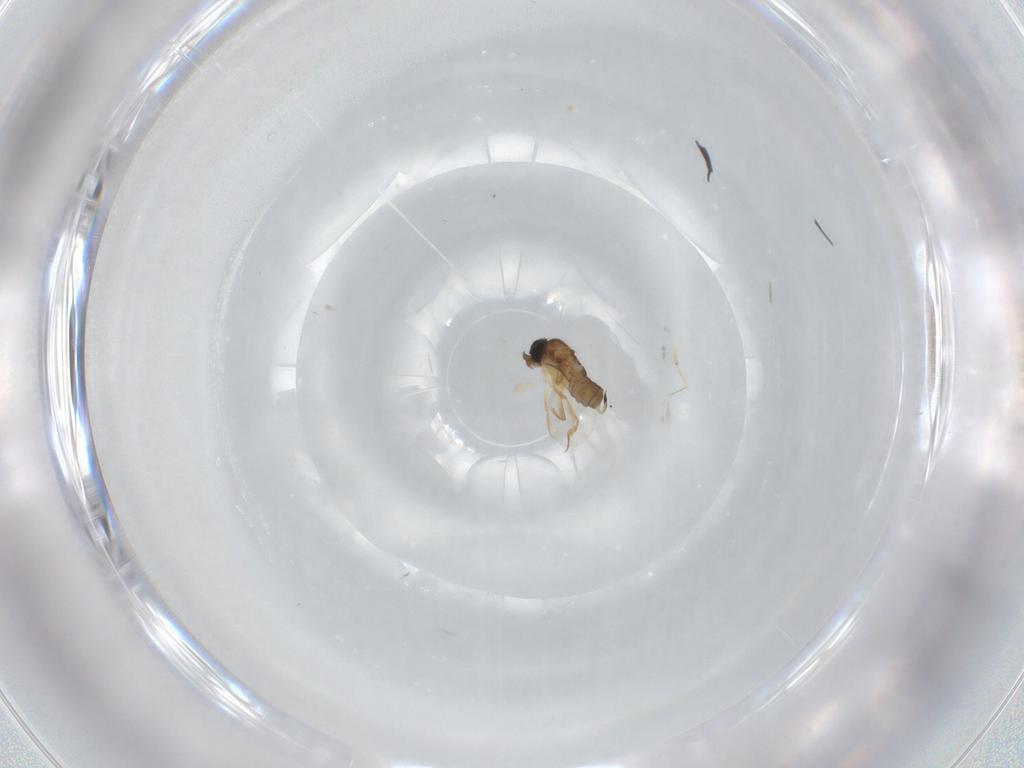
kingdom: Animalia
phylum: Arthropoda
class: Insecta
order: Diptera
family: Phoridae
